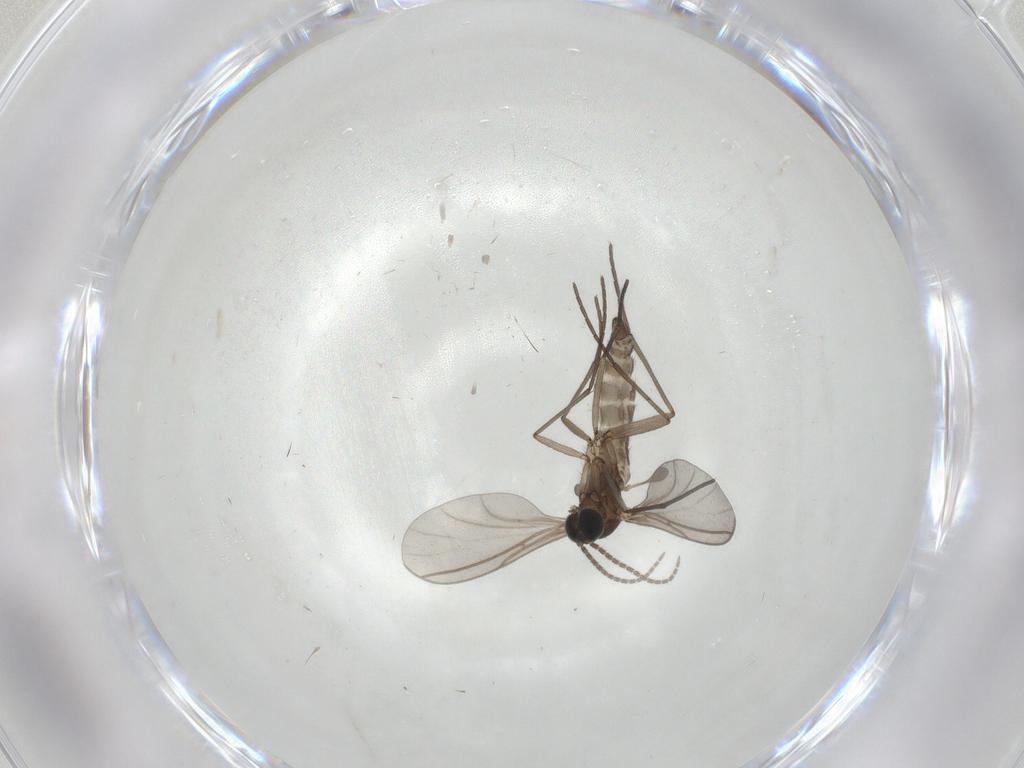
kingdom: Animalia
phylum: Arthropoda
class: Insecta
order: Diptera
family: Sciaridae
